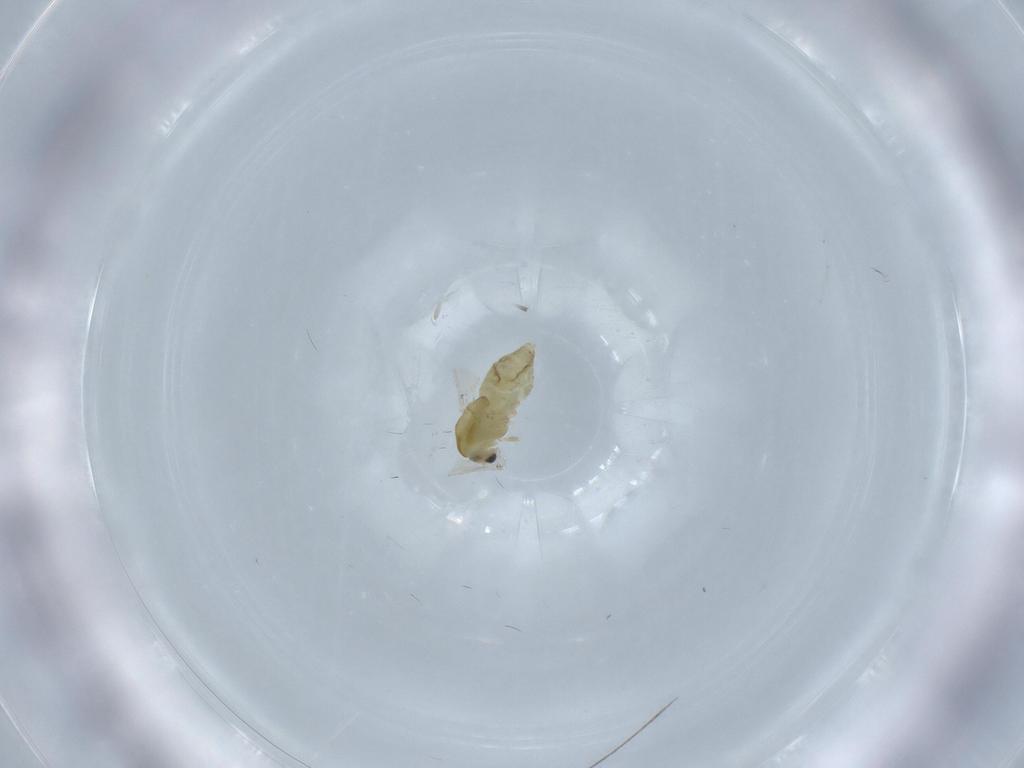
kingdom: Animalia
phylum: Arthropoda
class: Insecta
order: Diptera
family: Chironomidae
